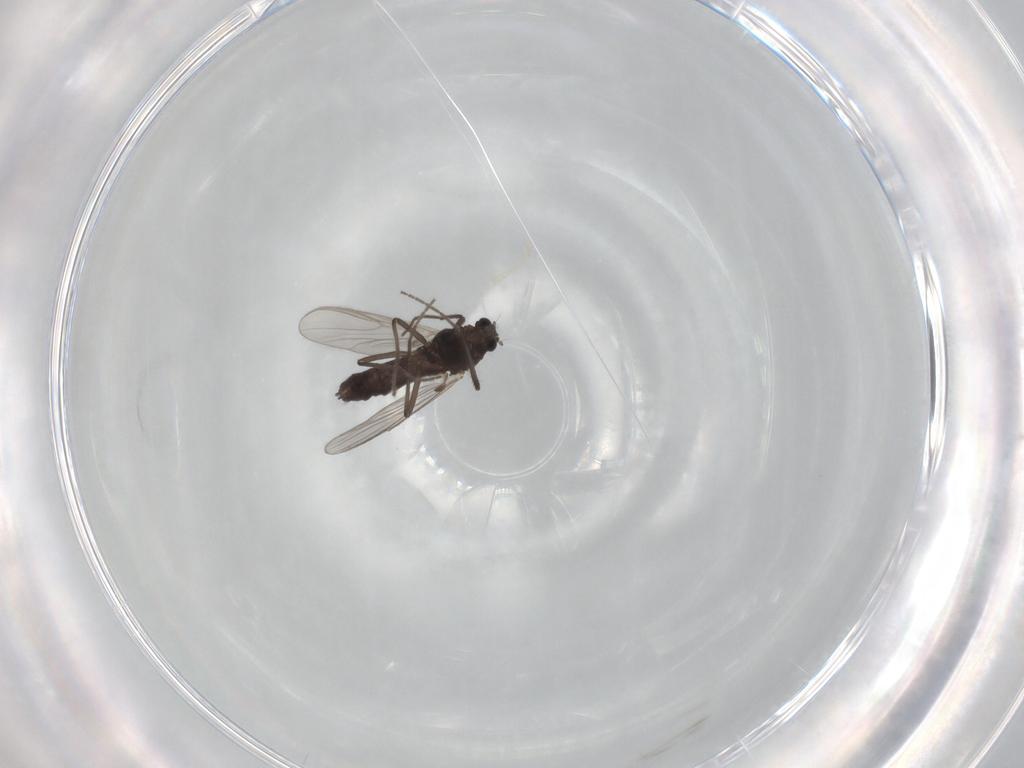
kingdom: Animalia
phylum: Arthropoda
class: Insecta
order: Diptera
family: Chironomidae
